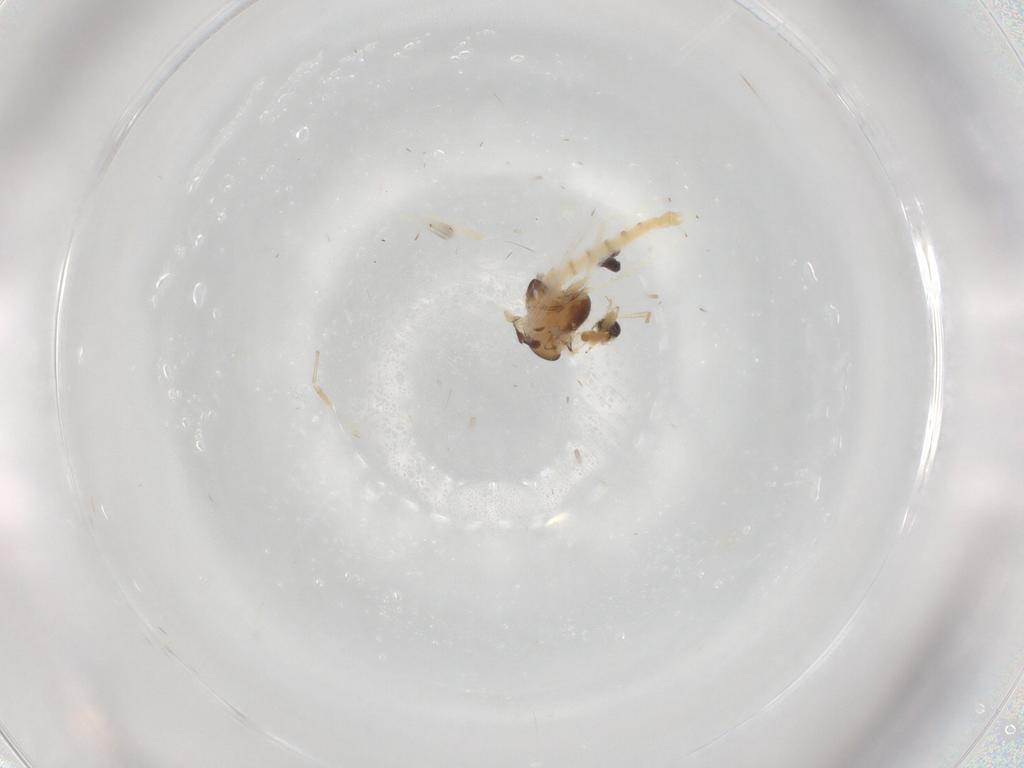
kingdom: Animalia
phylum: Arthropoda
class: Insecta
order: Diptera
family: Chironomidae
